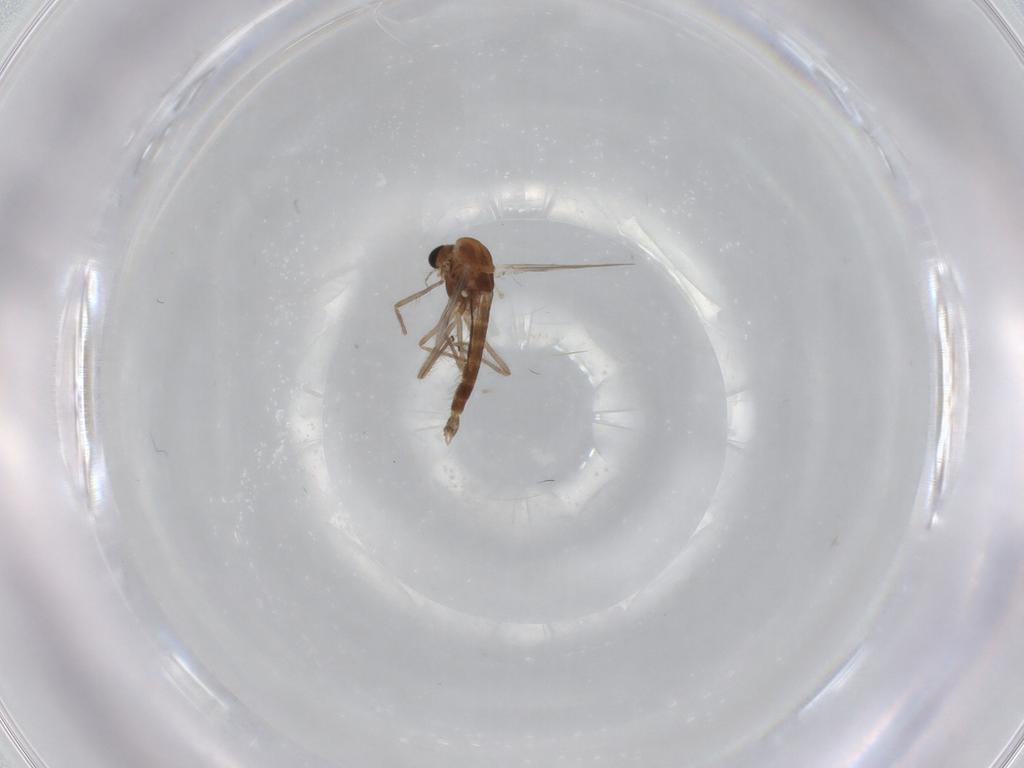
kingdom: Animalia
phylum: Arthropoda
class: Insecta
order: Diptera
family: Chironomidae
